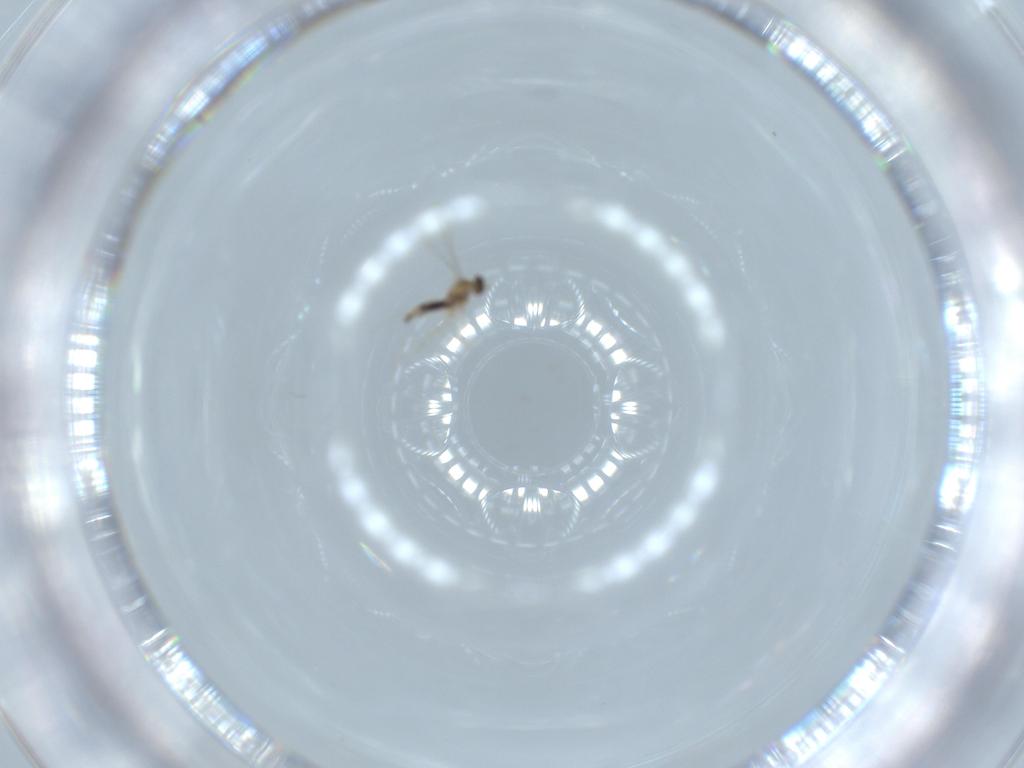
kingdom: Animalia
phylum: Arthropoda
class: Insecta
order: Diptera
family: Cecidomyiidae
